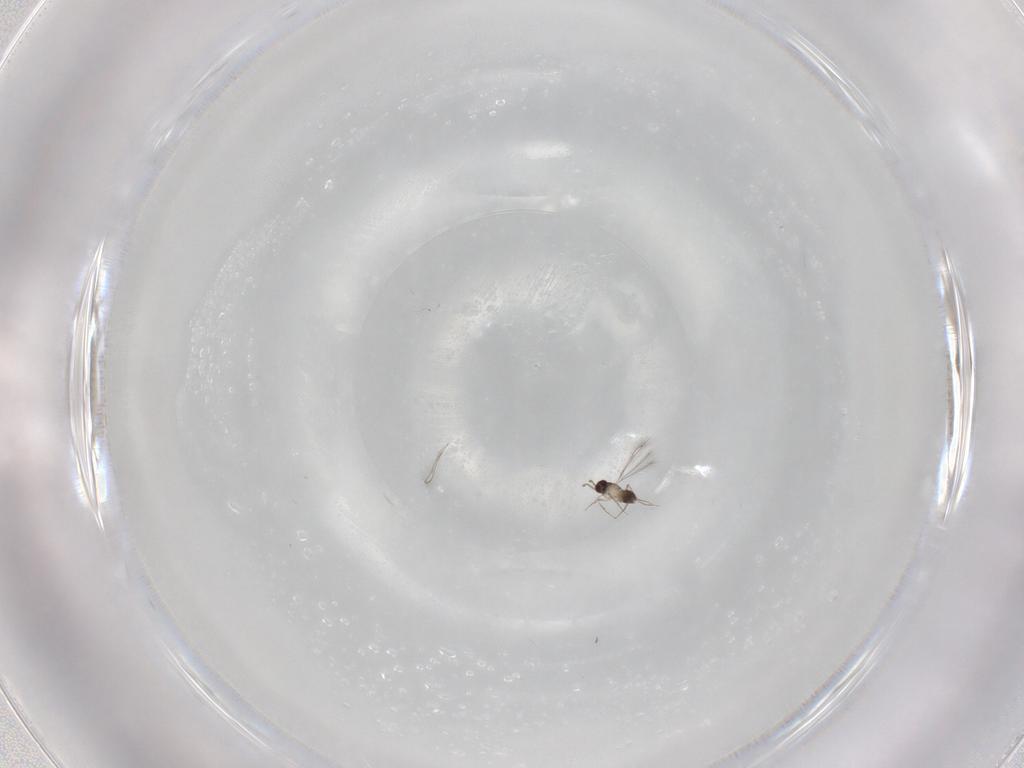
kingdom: Animalia
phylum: Arthropoda
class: Insecta
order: Hymenoptera
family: Mymaridae
